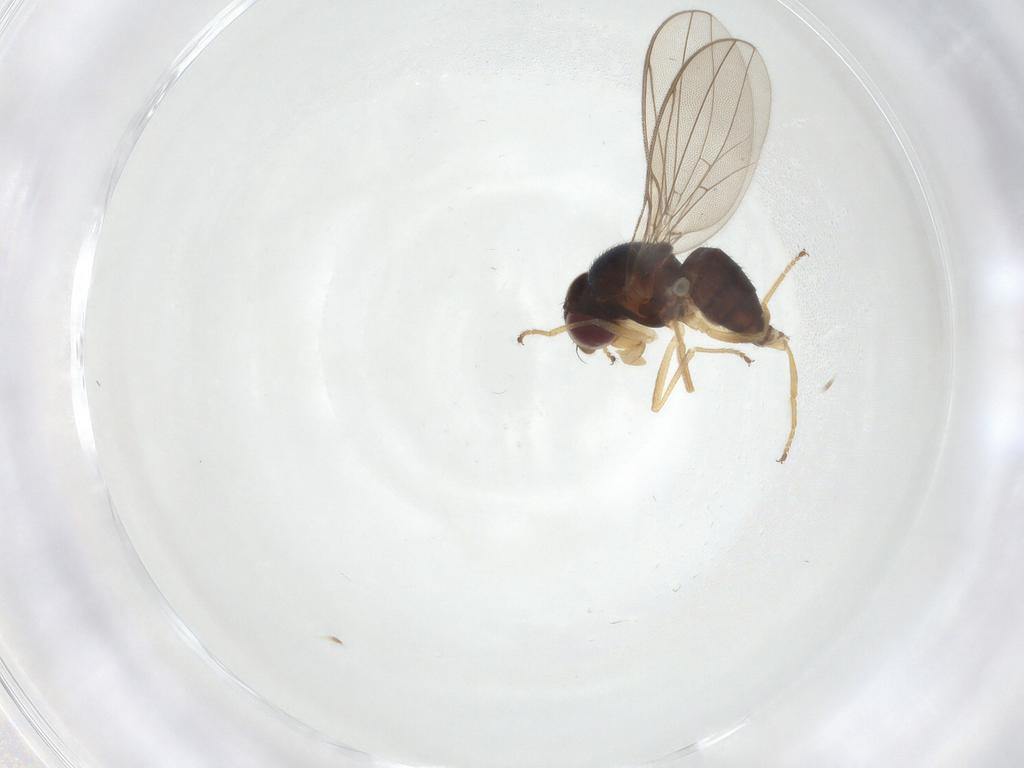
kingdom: Animalia
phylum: Arthropoda
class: Insecta
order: Diptera
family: Asteiidae
